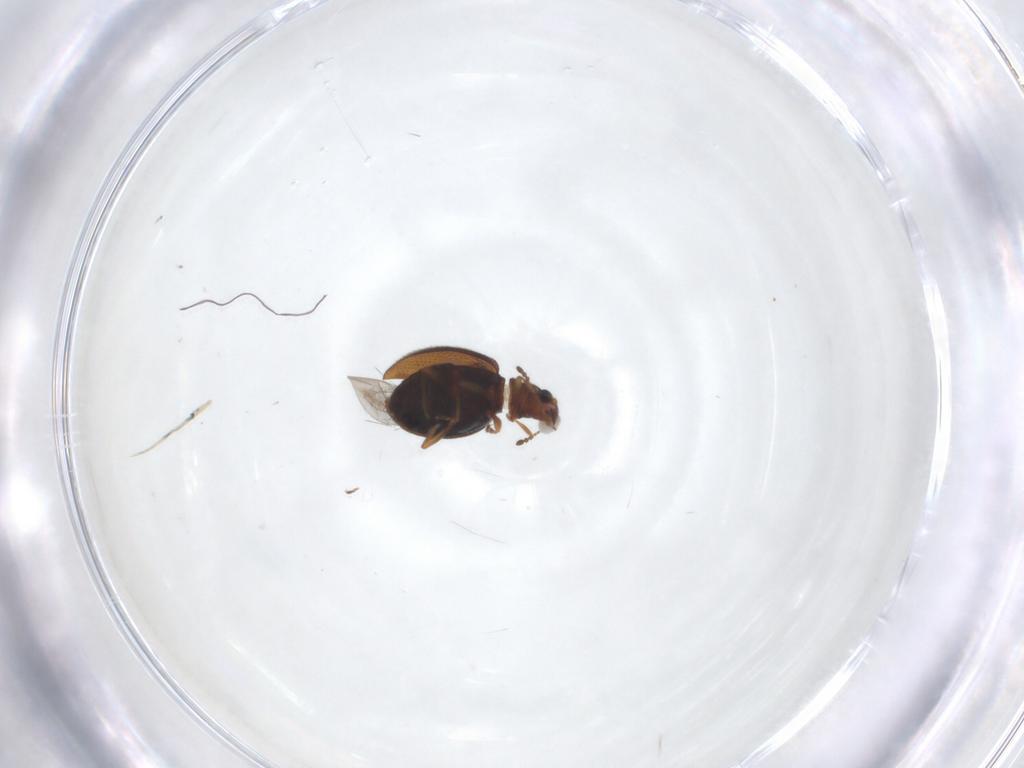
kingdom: Animalia
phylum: Arthropoda
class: Insecta
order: Coleoptera
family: Latridiidae
